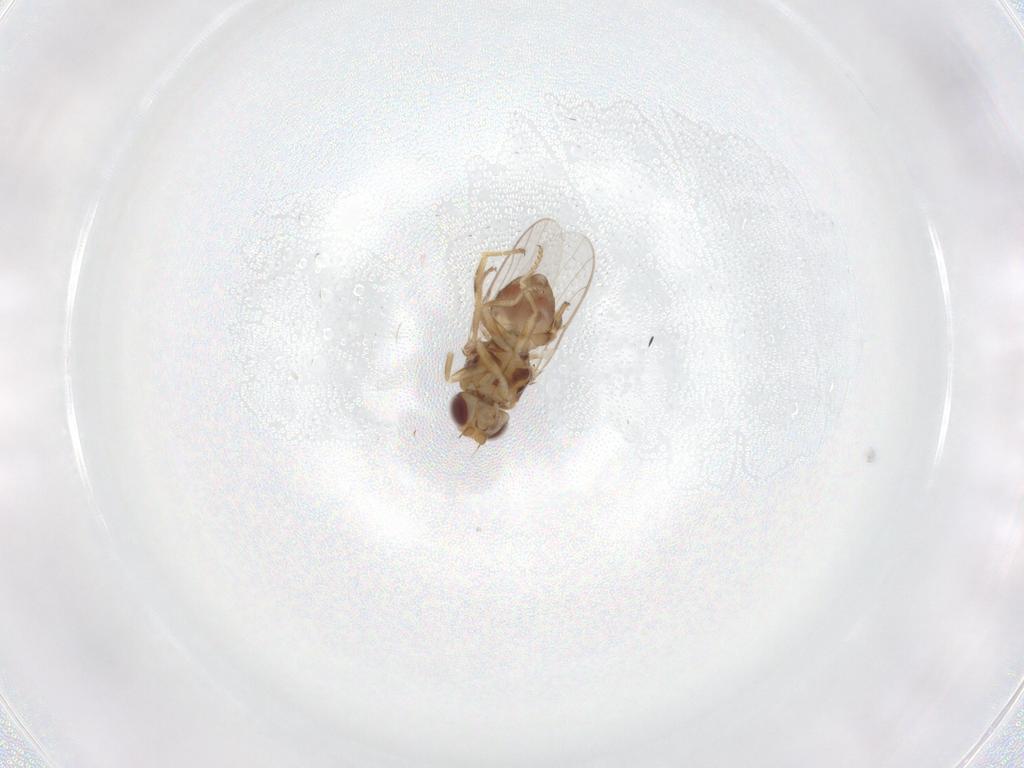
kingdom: Animalia
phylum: Arthropoda
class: Insecta
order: Diptera
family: Chloropidae
